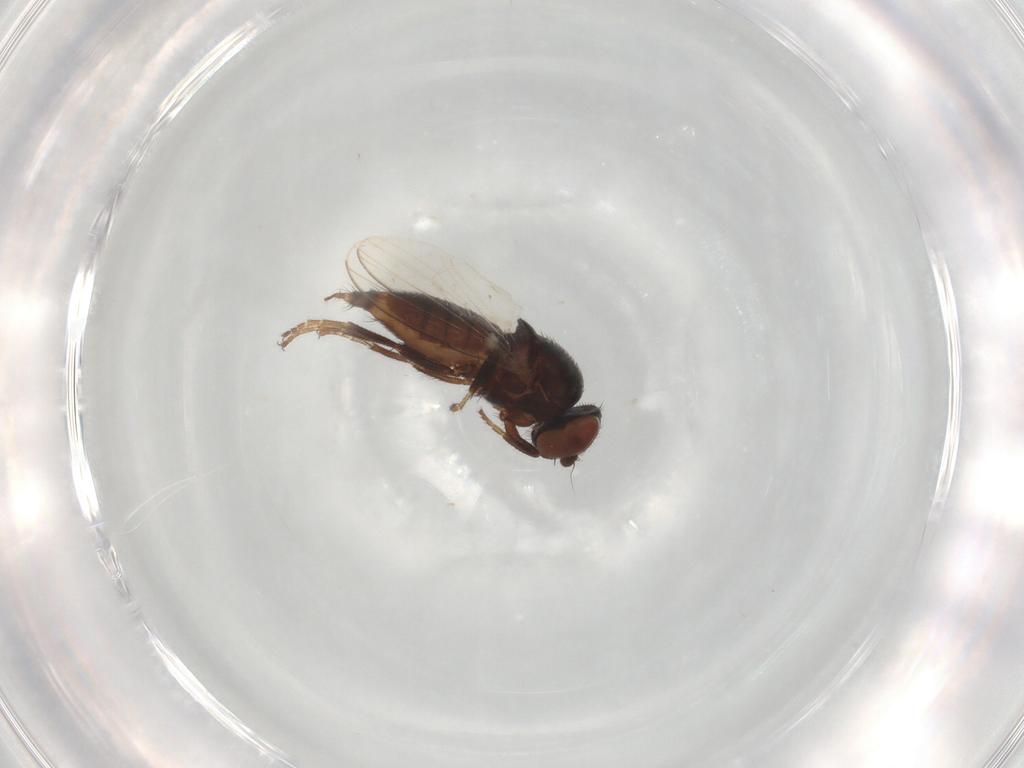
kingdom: Animalia
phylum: Arthropoda
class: Insecta
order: Diptera
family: Milichiidae
